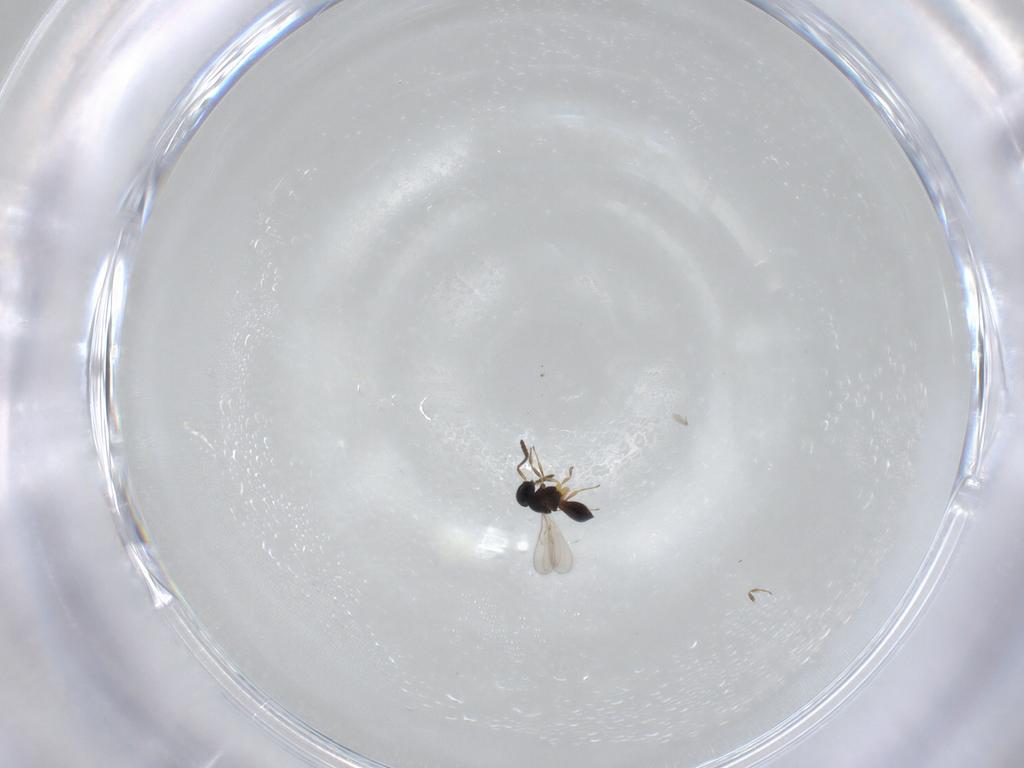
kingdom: Animalia
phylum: Arthropoda
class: Insecta
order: Hymenoptera
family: Scelionidae
